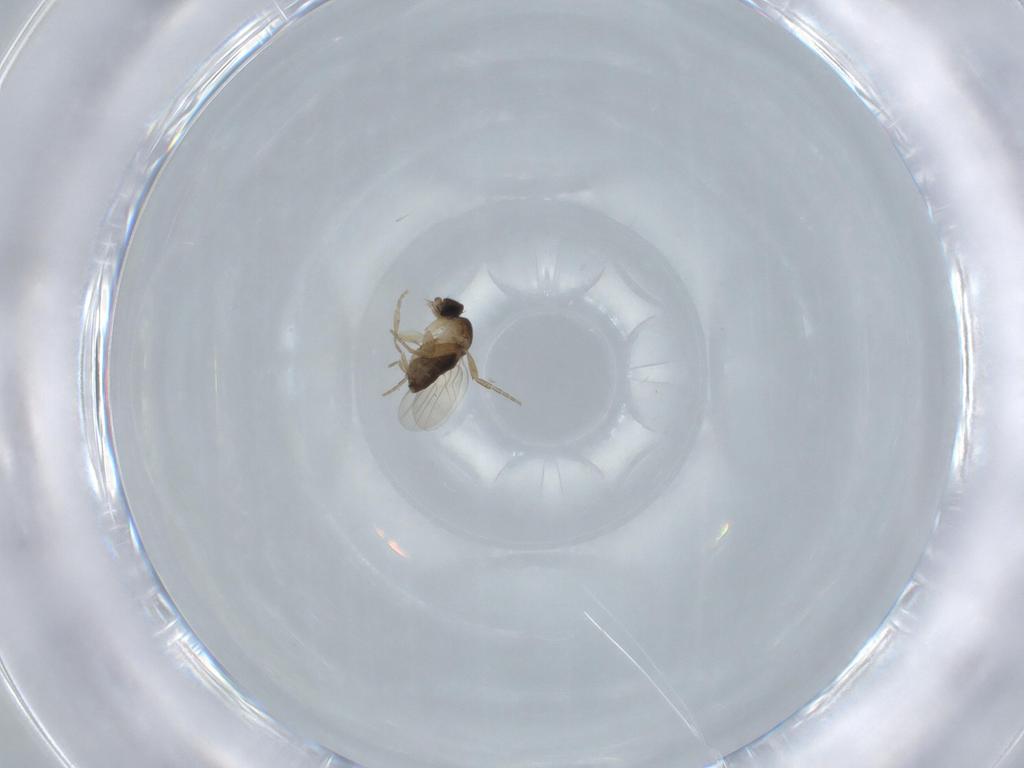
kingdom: Animalia
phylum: Arthropoda
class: Insecta
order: Diptera
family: Phoridae
